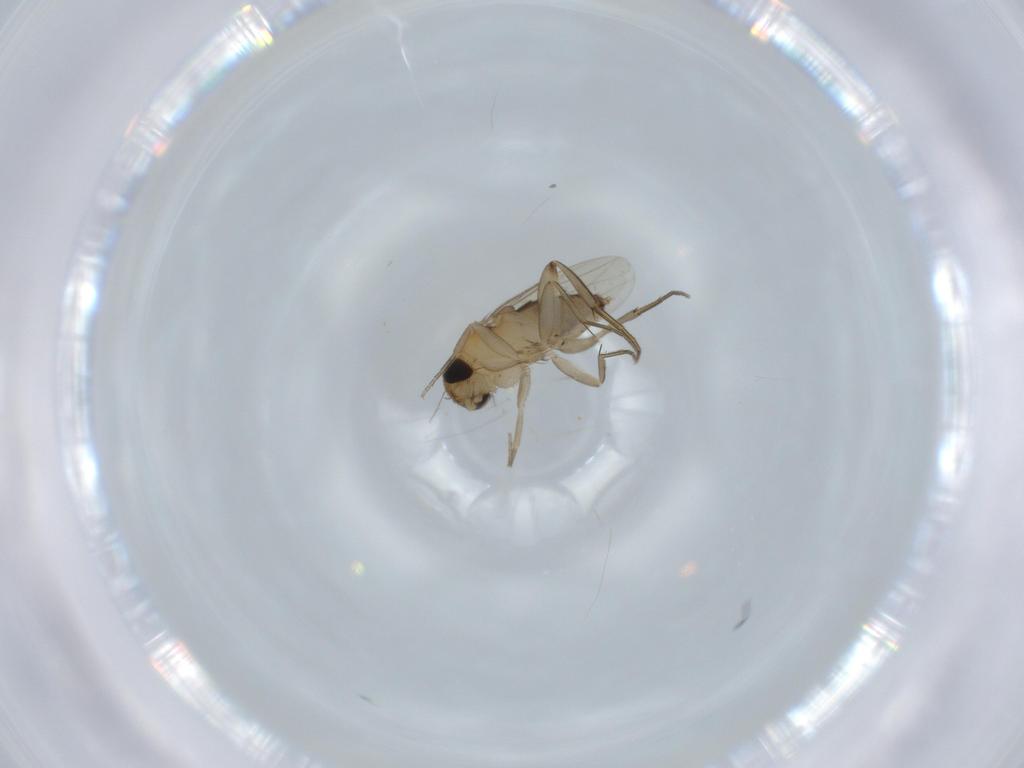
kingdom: Animalia
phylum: Arthropoda
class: Insecta
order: Diptera
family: Phoridae
